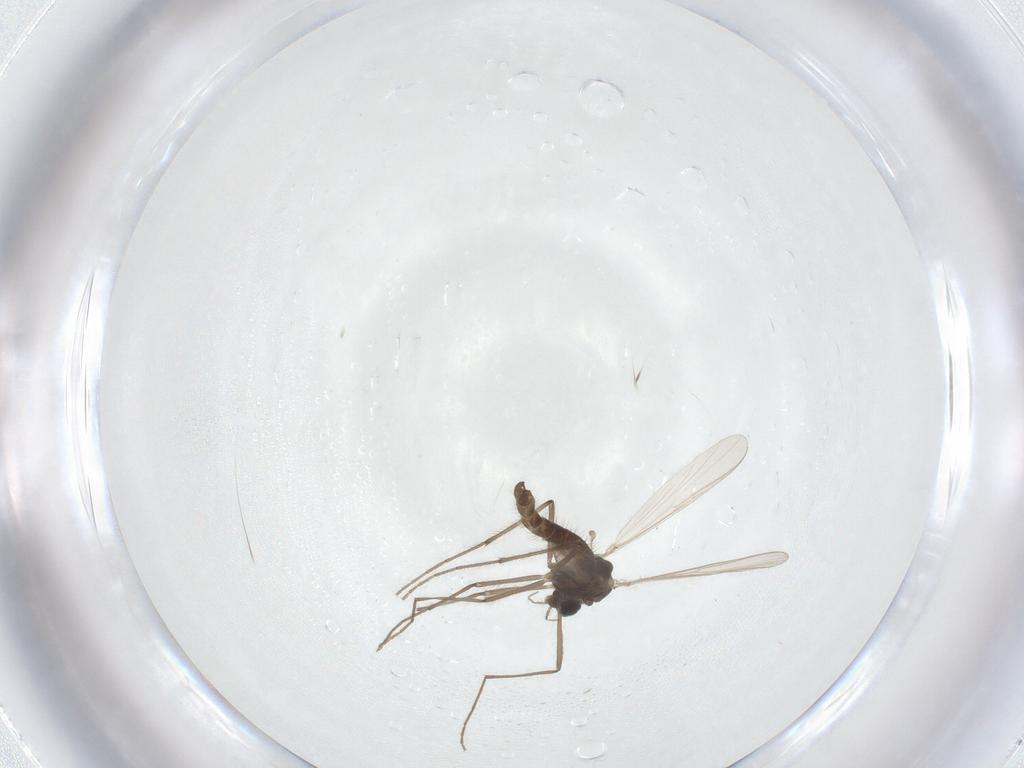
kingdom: Animalia
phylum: Arthropoda
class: Insecta
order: Diptera
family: Chironomidae
